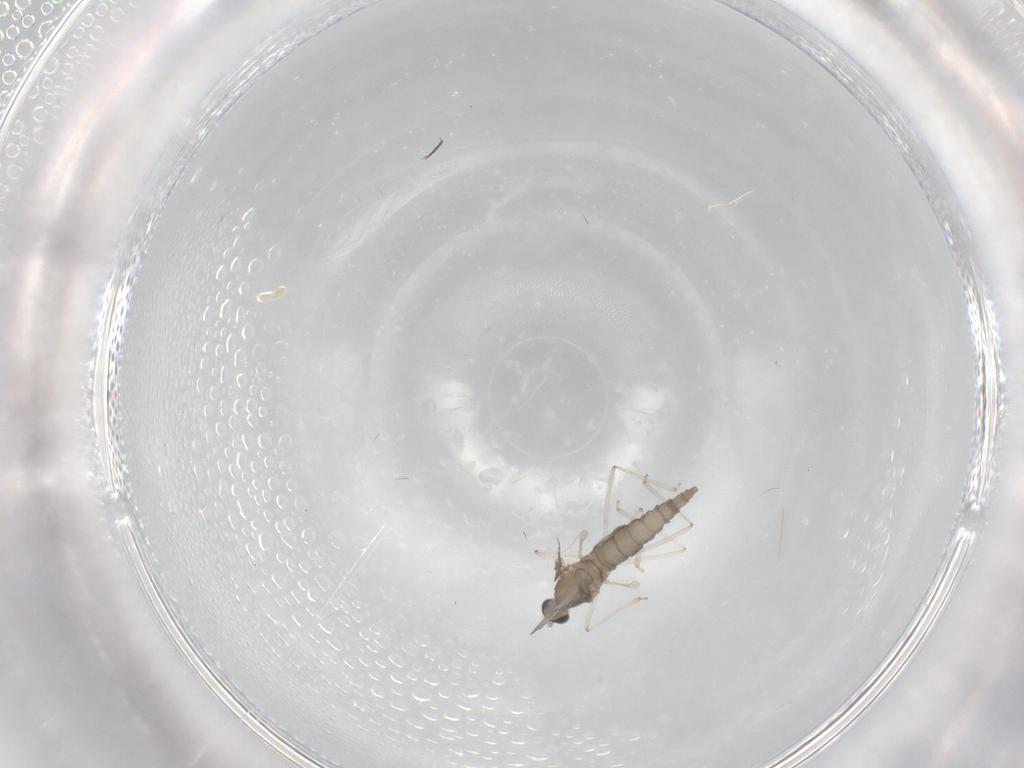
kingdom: Animalia
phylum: Arthropoda
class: Insecta
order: Diptera
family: Cecidomyiidae
